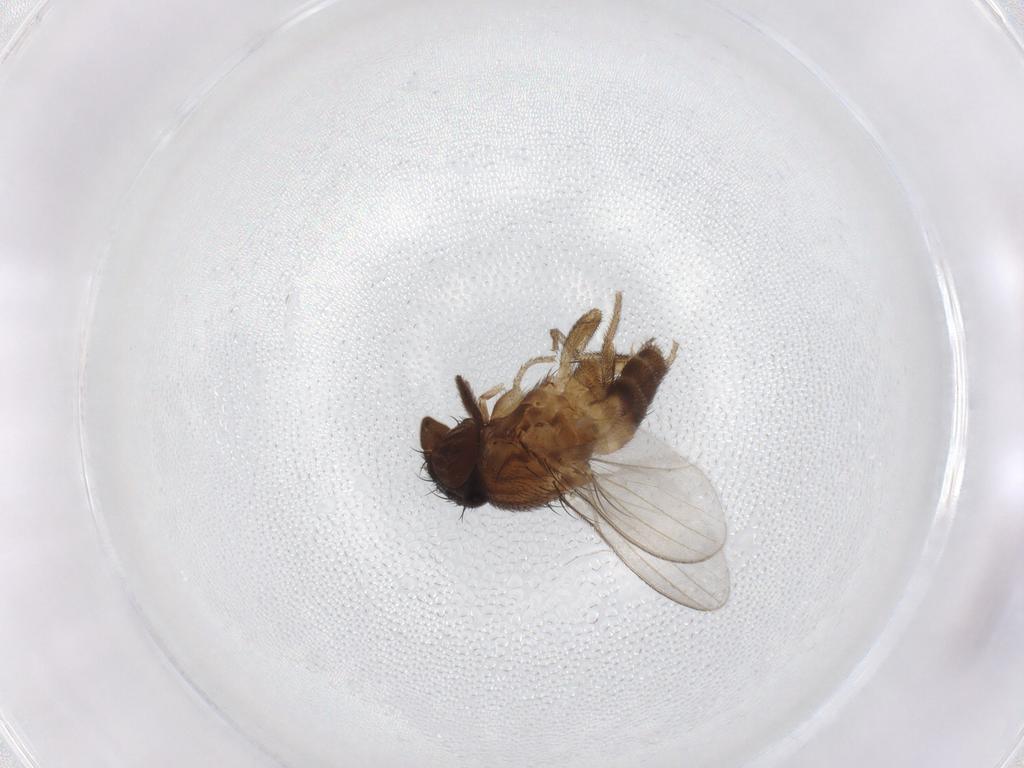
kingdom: Animalia
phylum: Arthropoda
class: Insecta
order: Diptera
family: Milichiidae
